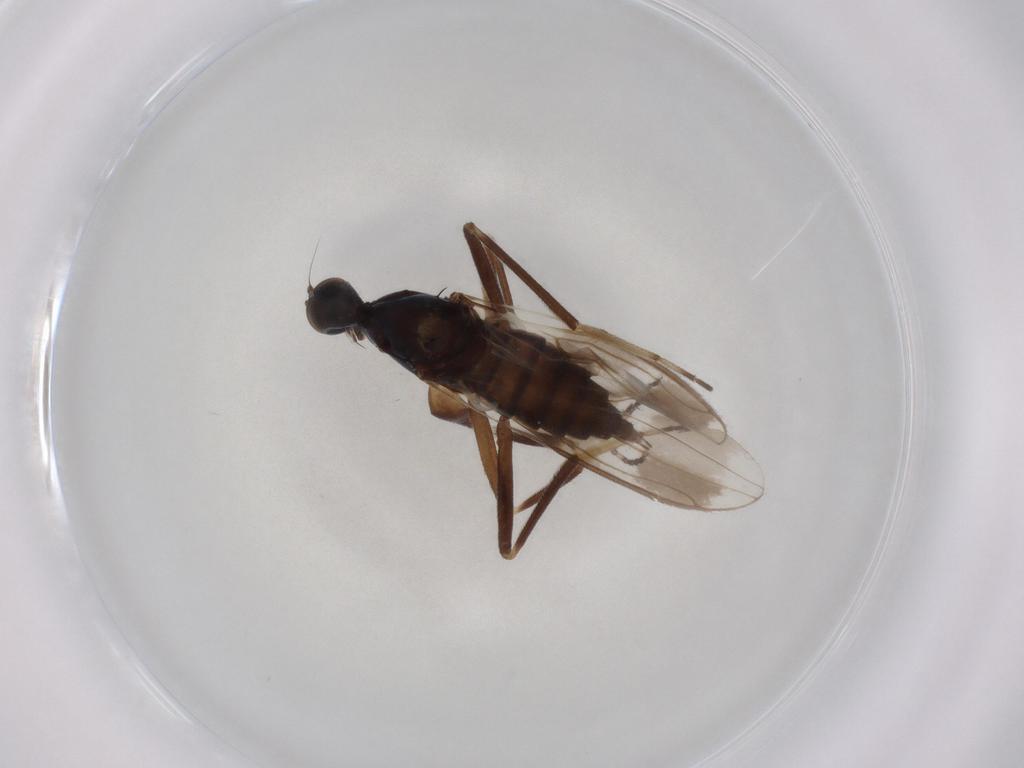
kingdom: Animalia
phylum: Arthropoda
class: Insecta
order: Diptera
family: Hybotidae
